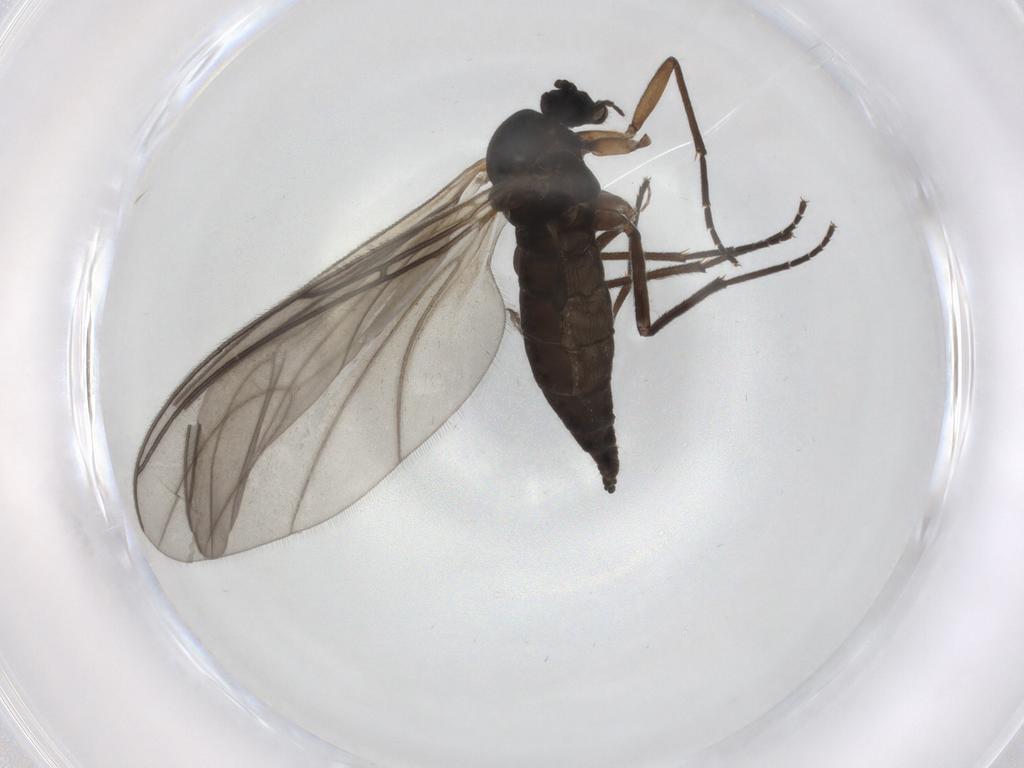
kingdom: Animalia
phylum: Arthropoda
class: Insecta
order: Diptera
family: Sciaridae
